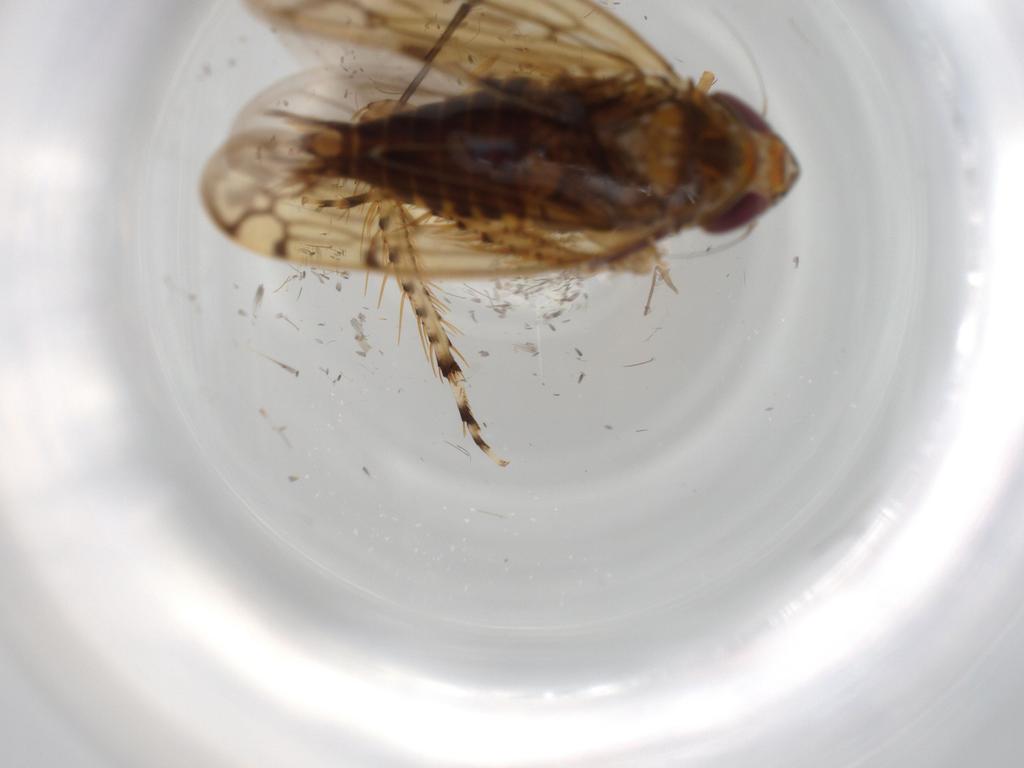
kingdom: Animalia
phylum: Arthropoda
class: Insecta
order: Hemiptera
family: Cicadellidae
